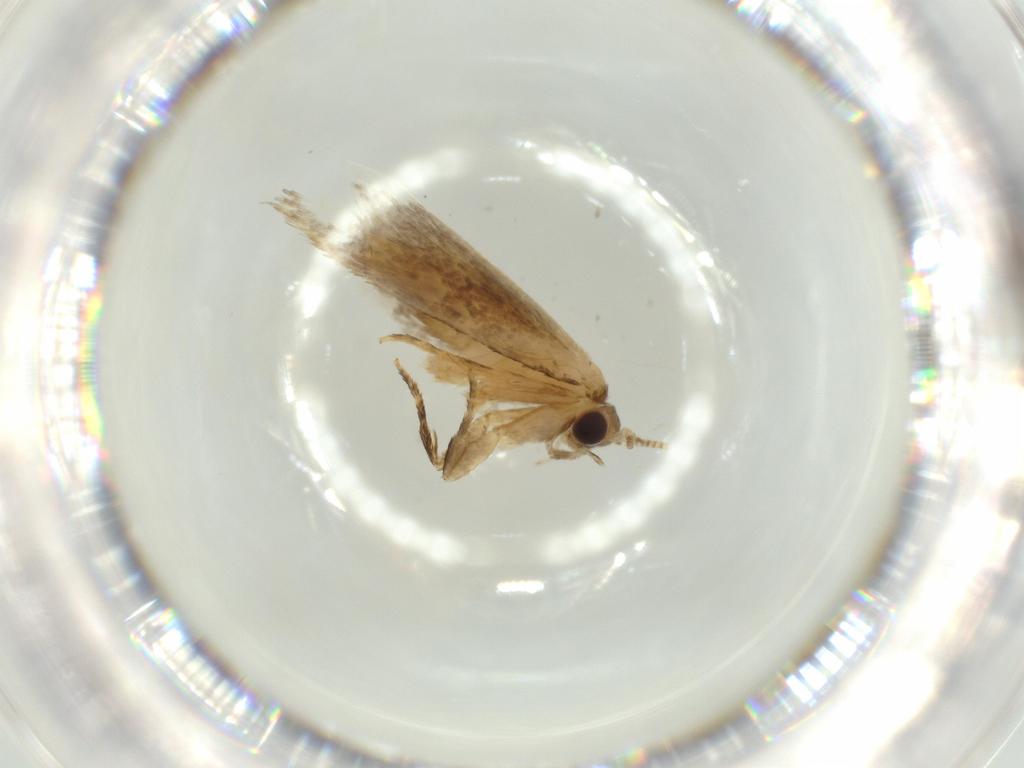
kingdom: Animalia
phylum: Arthropoda
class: Insecta
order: Lepidoptera
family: Tineidae
